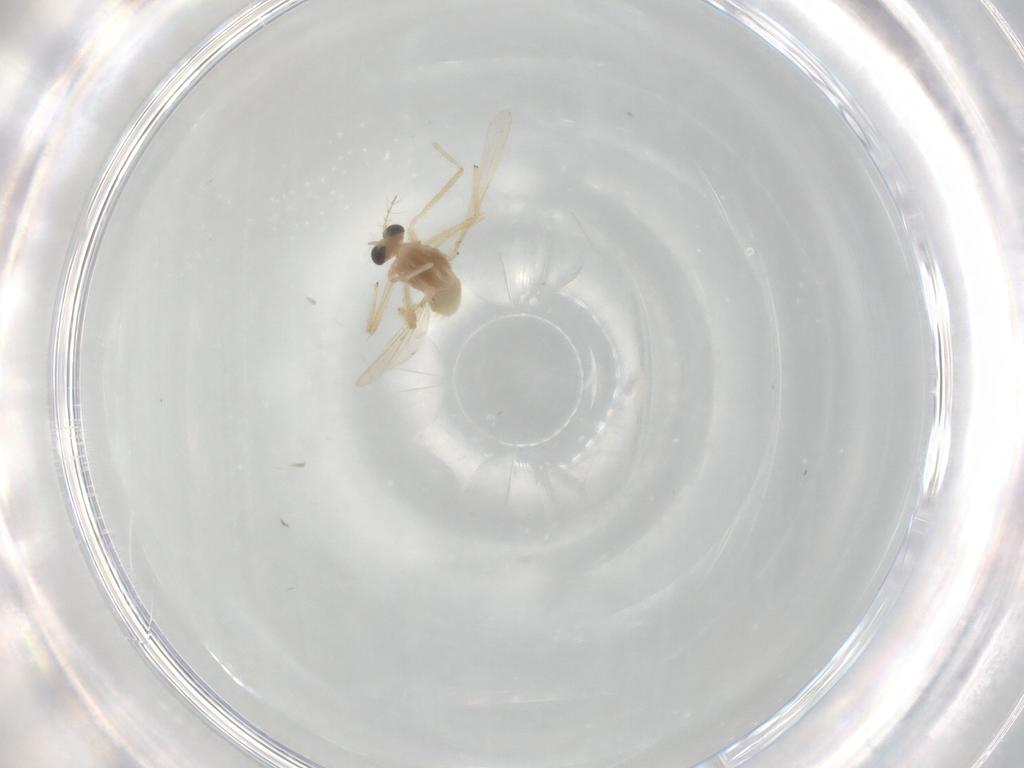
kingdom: Animalia
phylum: Arthropoda
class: Insecta
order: Diptera
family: Chironomidae
